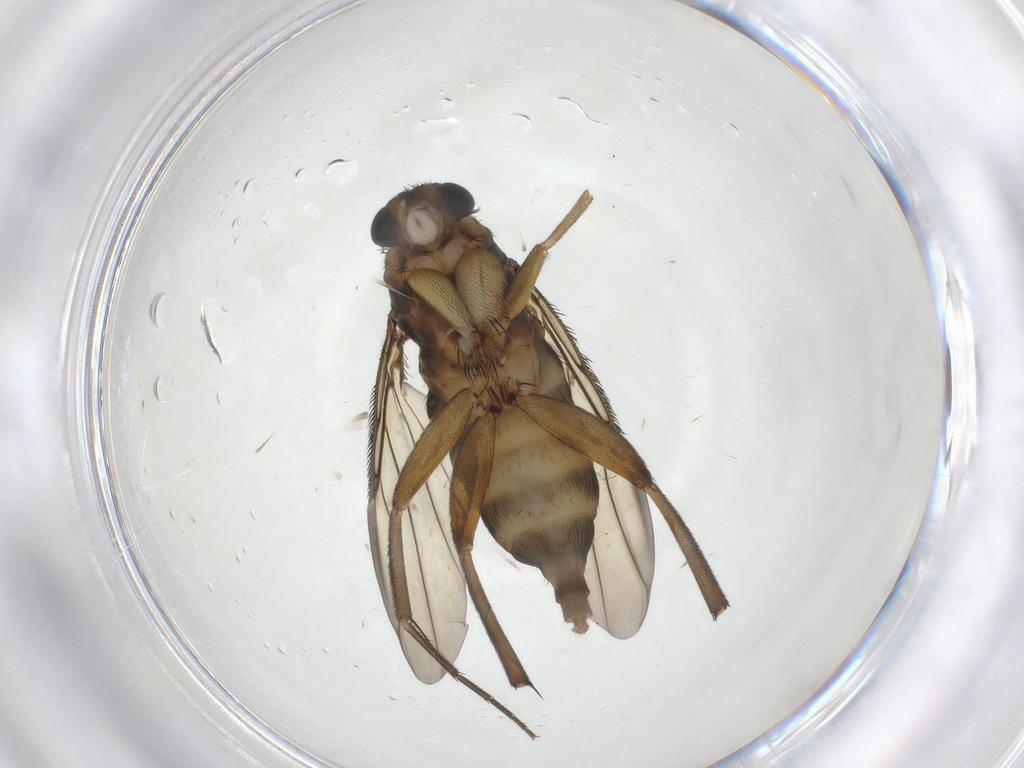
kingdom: Animalia
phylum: Arthropoda
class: Insecta
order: Diptera
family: Phoridae
